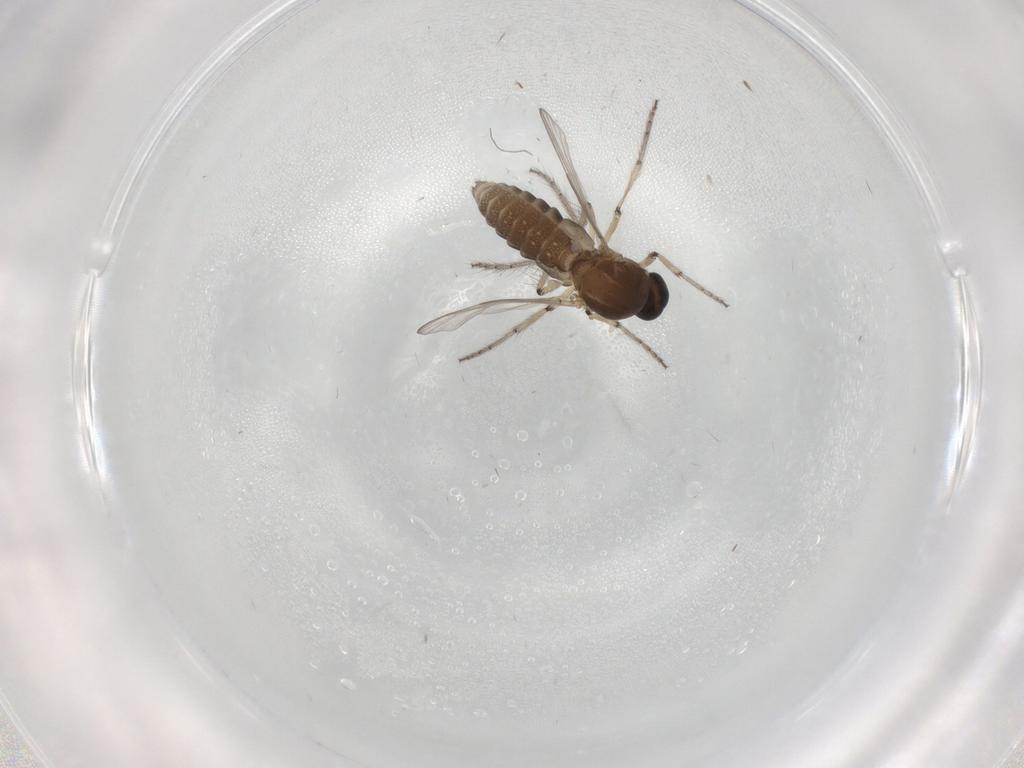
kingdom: Animalia
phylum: Arthropoda
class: Insecta
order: Diptera
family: Ceratopogonidae
